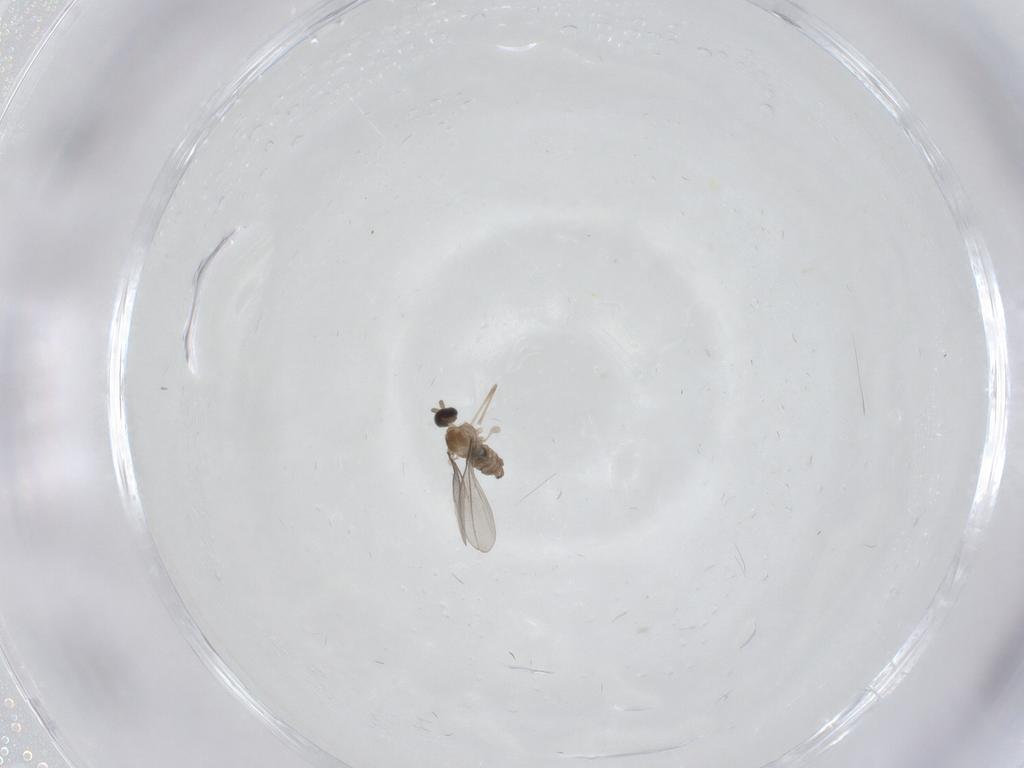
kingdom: Animalia
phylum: Arthropoda
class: Insecta
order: Diptera
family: Cecidomyiidae
